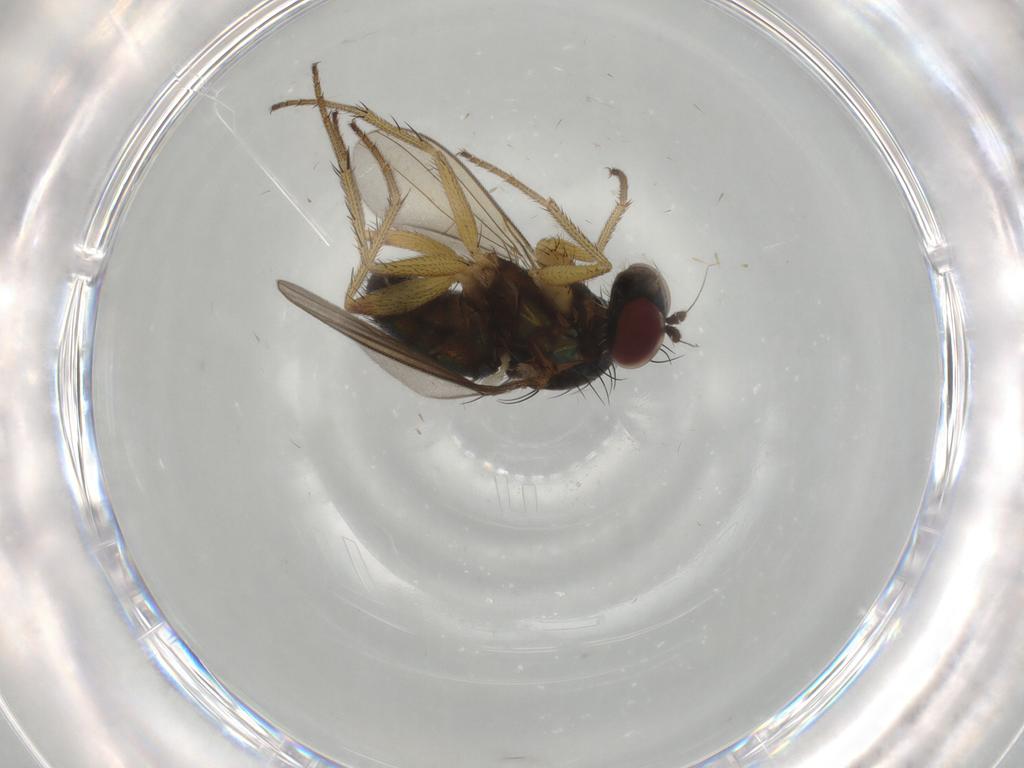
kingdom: Animalia
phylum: Arthropoda
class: Insecta
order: Diptera
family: Dolichopodidae
